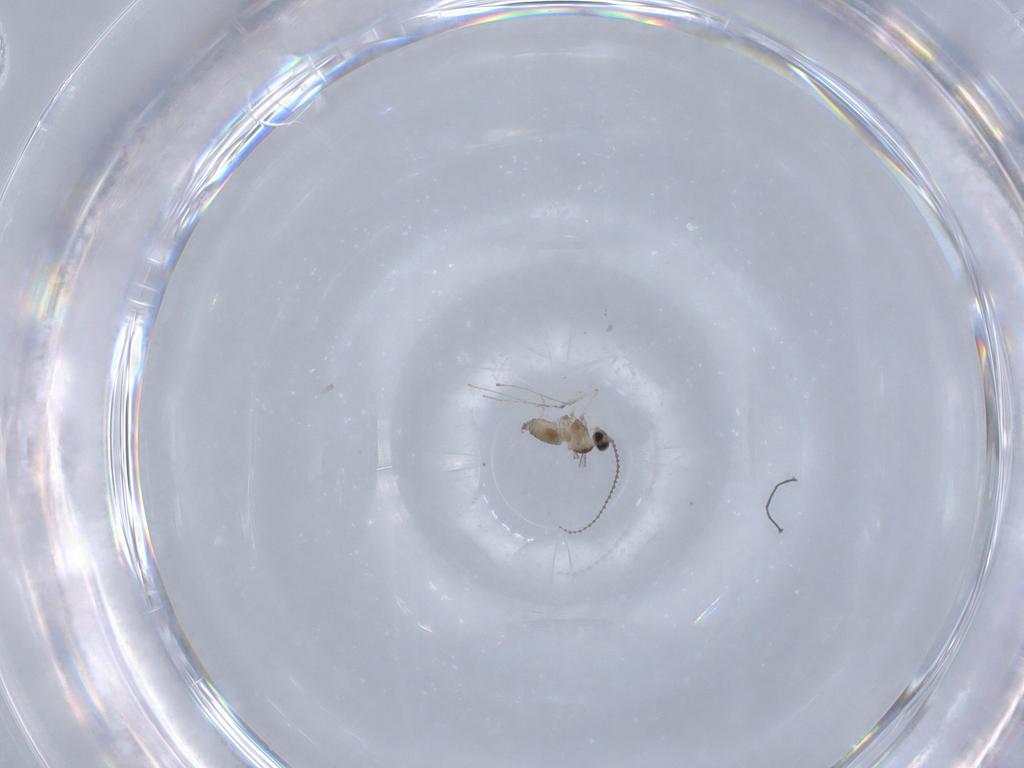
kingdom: Animalia
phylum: Arthropoda
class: Insecta
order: Diptera
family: Cecidomyiidae
